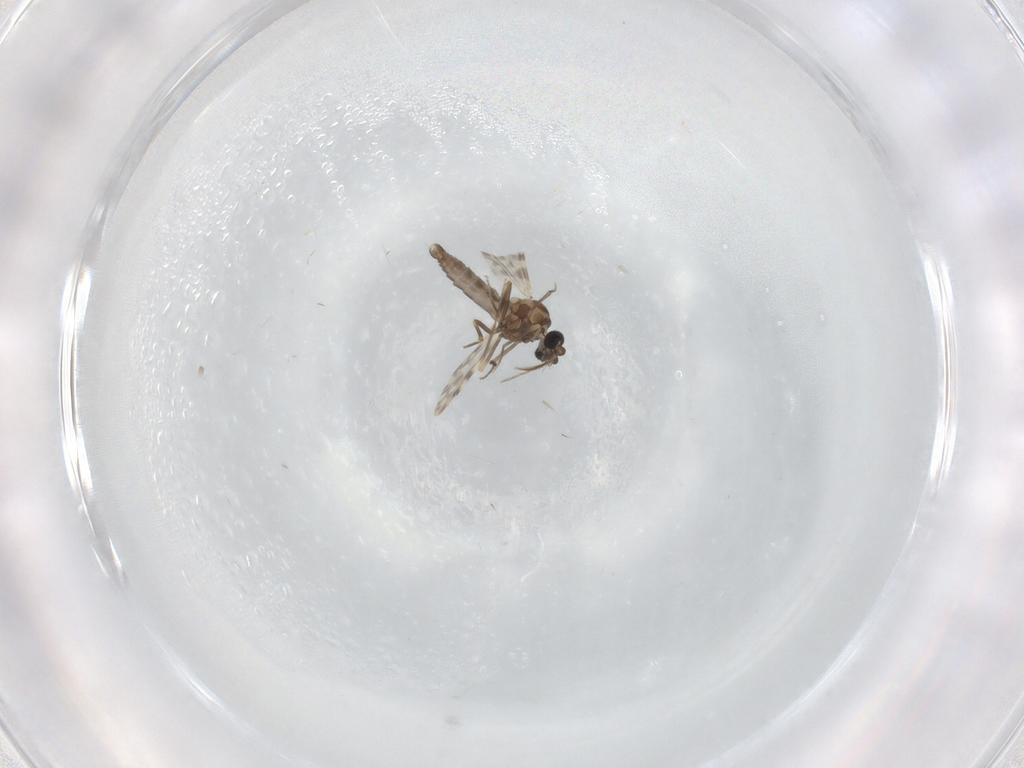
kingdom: Animalia
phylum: Arthropoda
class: Insecta
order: Diptera
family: Ceratopogonidae
